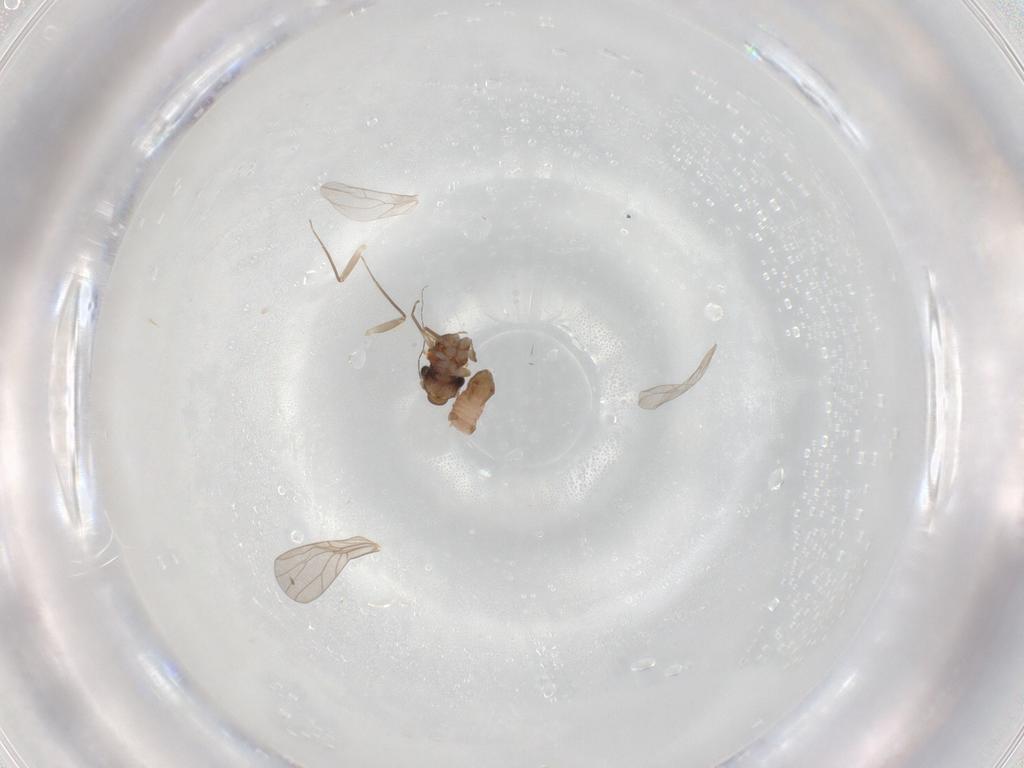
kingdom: Animalia
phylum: Arthropoda
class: Insecta
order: Psocodea
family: Lepidopsocidae
